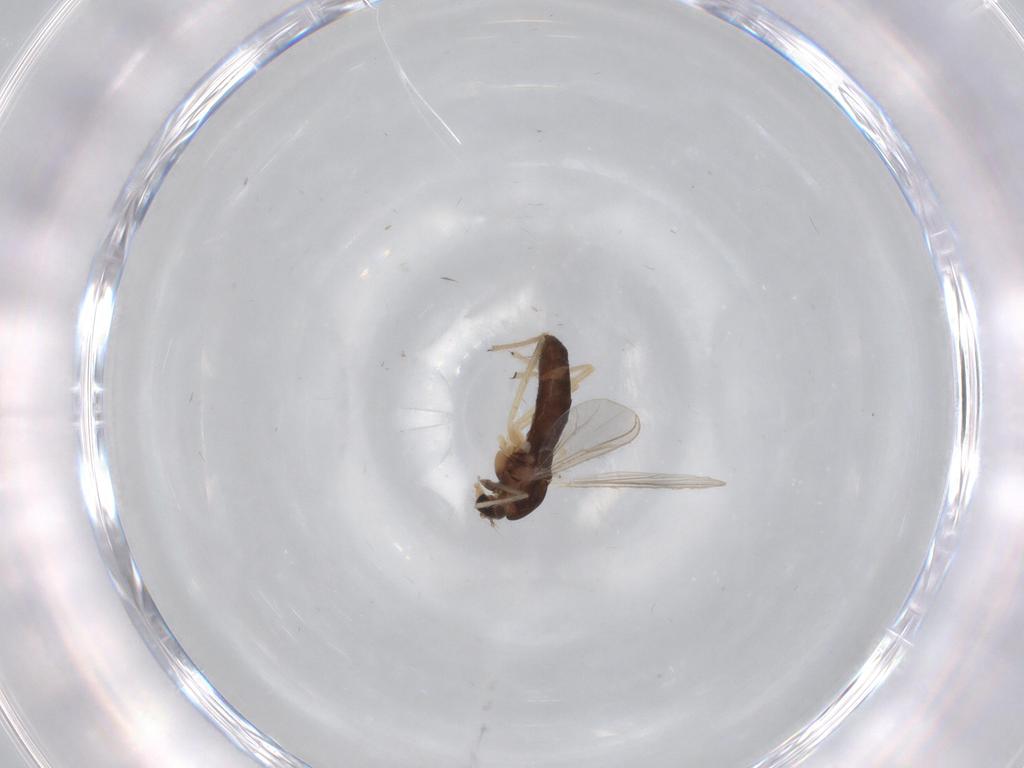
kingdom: Animalia
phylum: Arthropoda
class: Insecta
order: Diptera
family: Chironomidae
